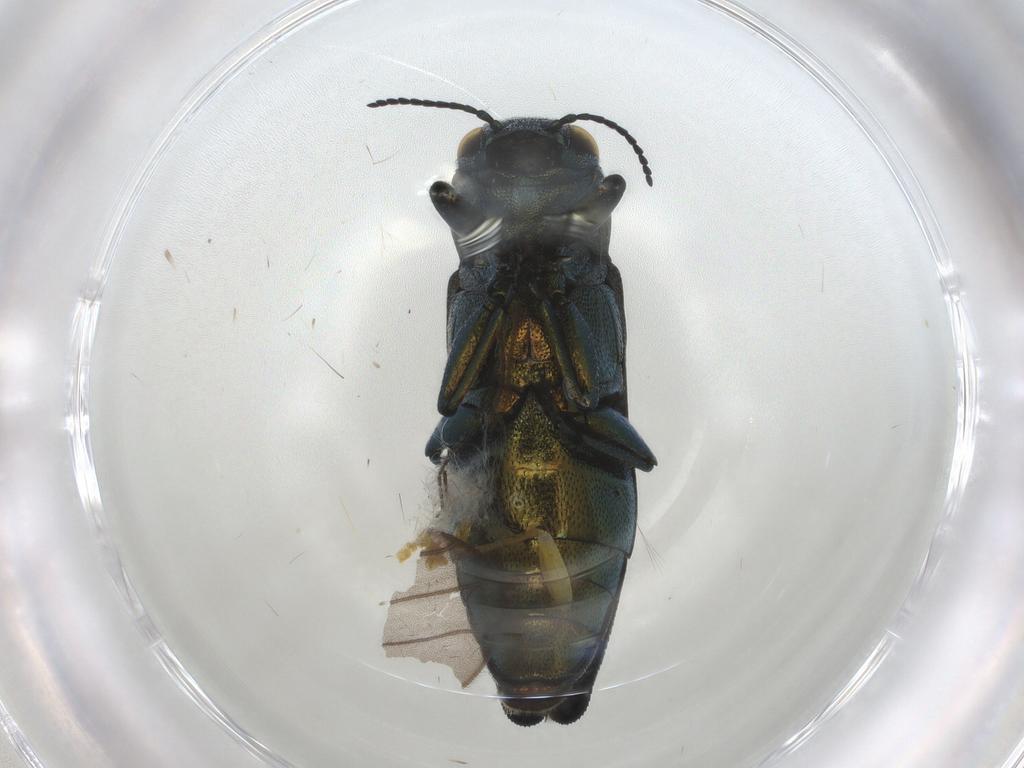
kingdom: Animalia
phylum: Arthropoda
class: Insecta
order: Coleoptera
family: Buprestidae
